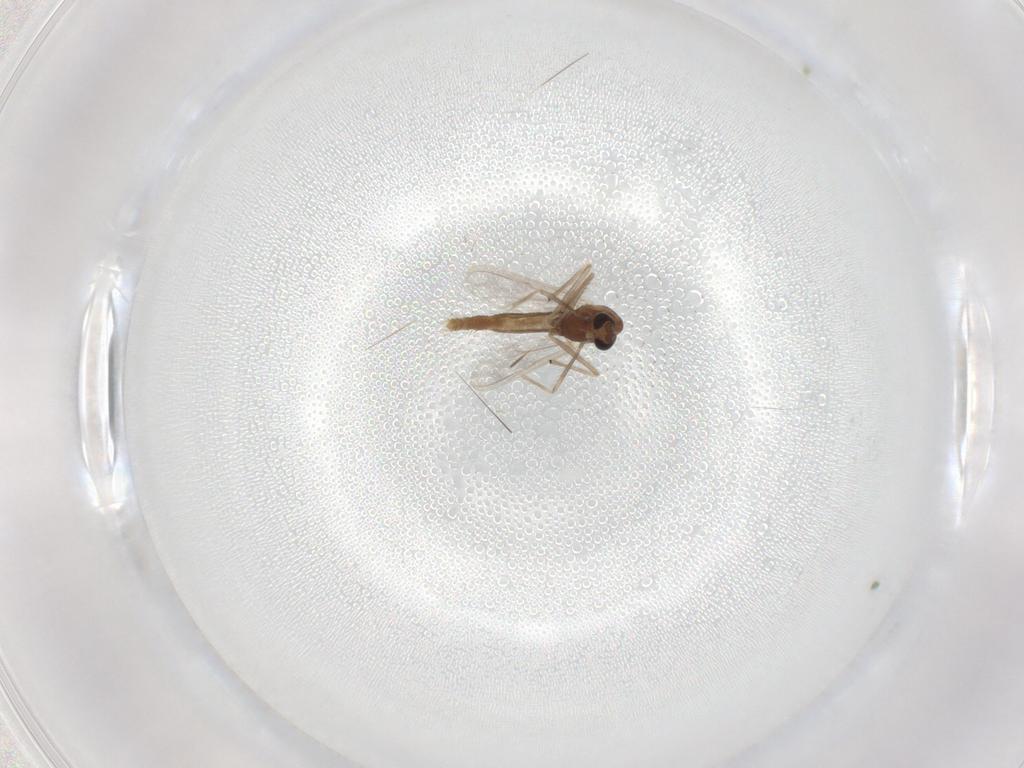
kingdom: Animalia
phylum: Arthropoda
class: Insecta
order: Diptera
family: Chironomidae
